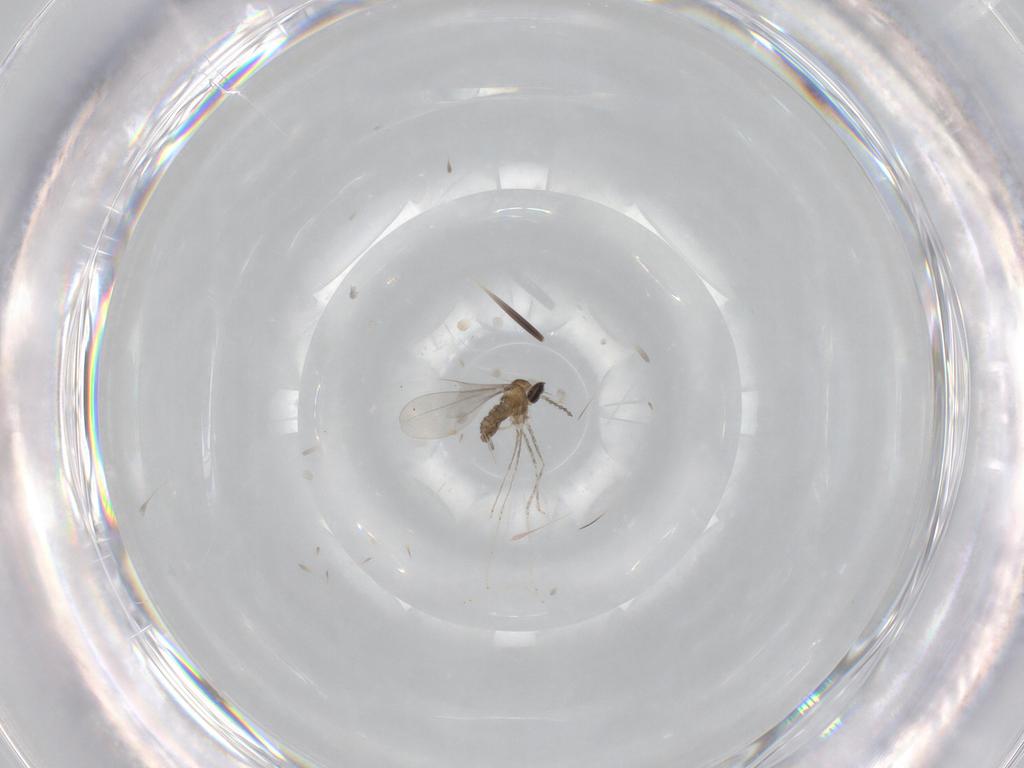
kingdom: Animalia
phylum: Arthropoda
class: Insecta
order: Diptera
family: Cecidomyiidae
